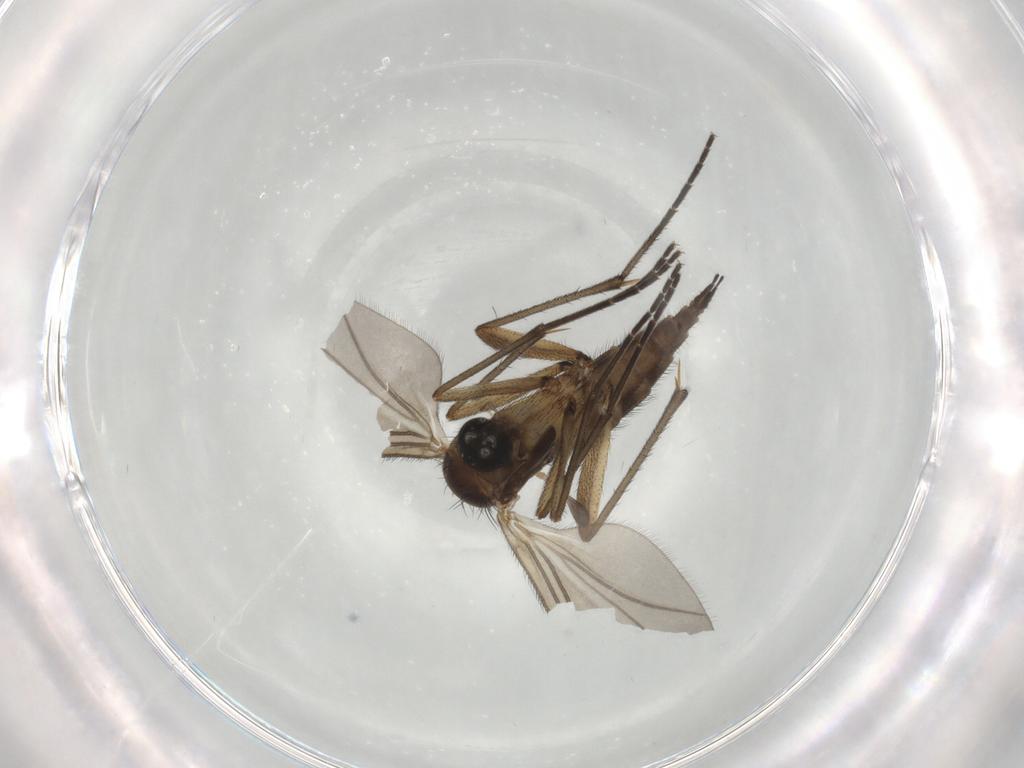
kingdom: Animalia
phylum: Arthropoda
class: Insecta
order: Diptera
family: Sciaridae
